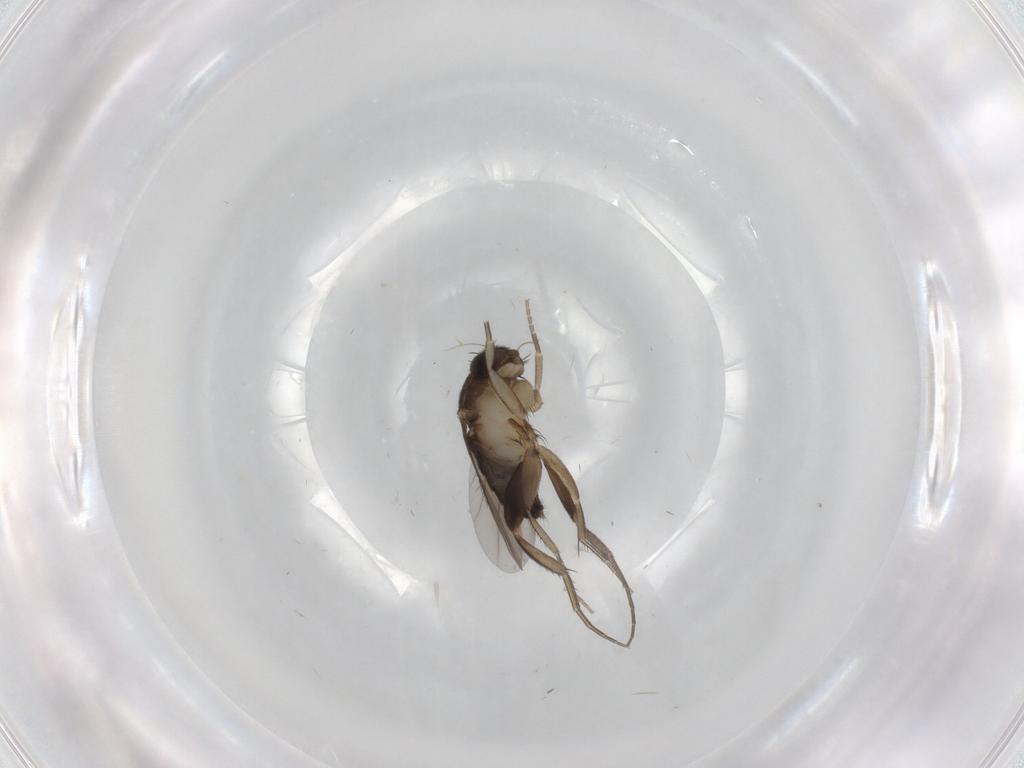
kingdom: Animalia
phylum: Arthropoda
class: Insecta
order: Diptera
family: Phoridae
